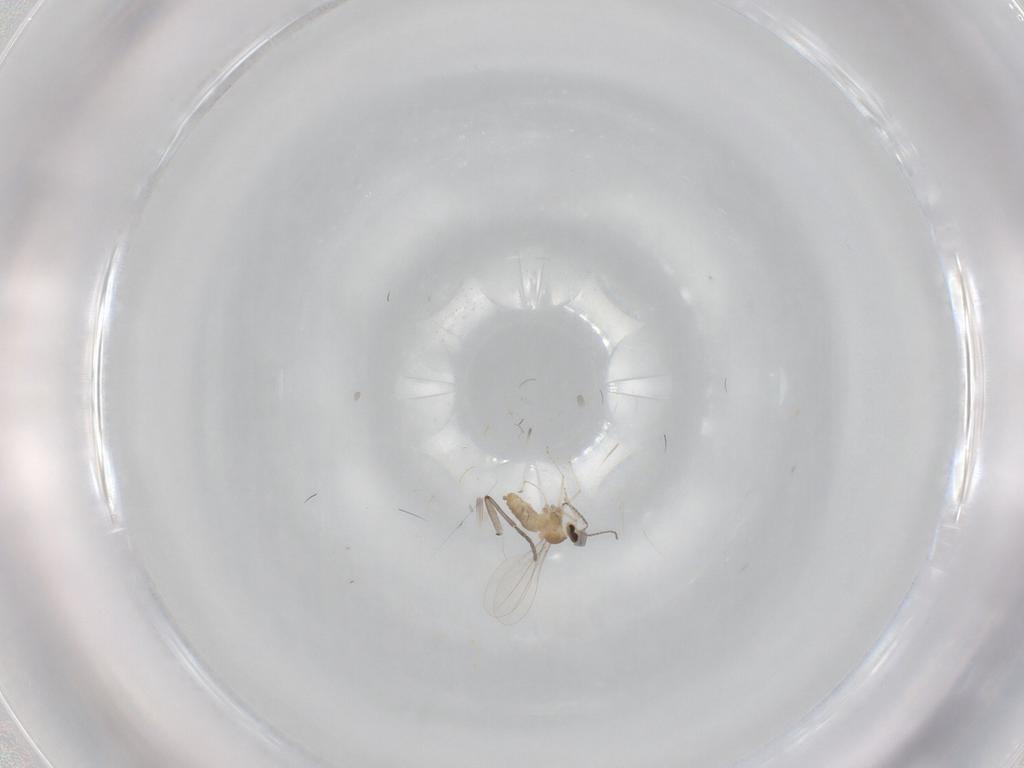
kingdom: Animalia
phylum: Arthropoda
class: Insecta
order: Diptera
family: Cecidomyiidae
